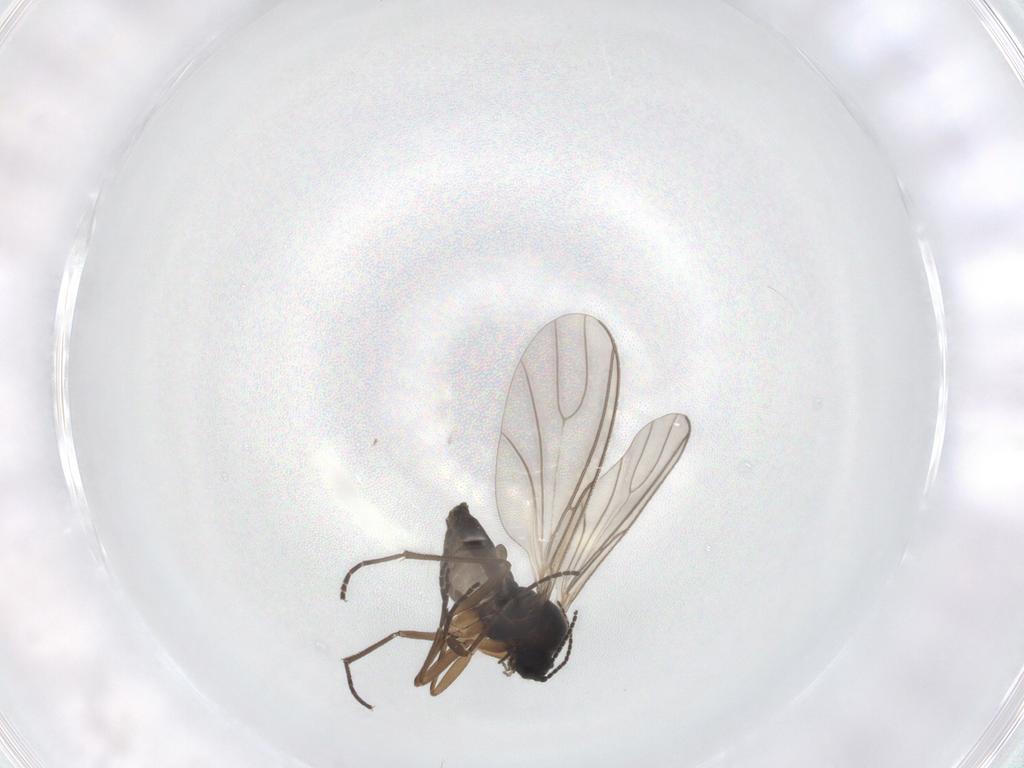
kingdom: Animalia
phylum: Arthropoda
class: Insecta
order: Diptera
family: Sciaridae
